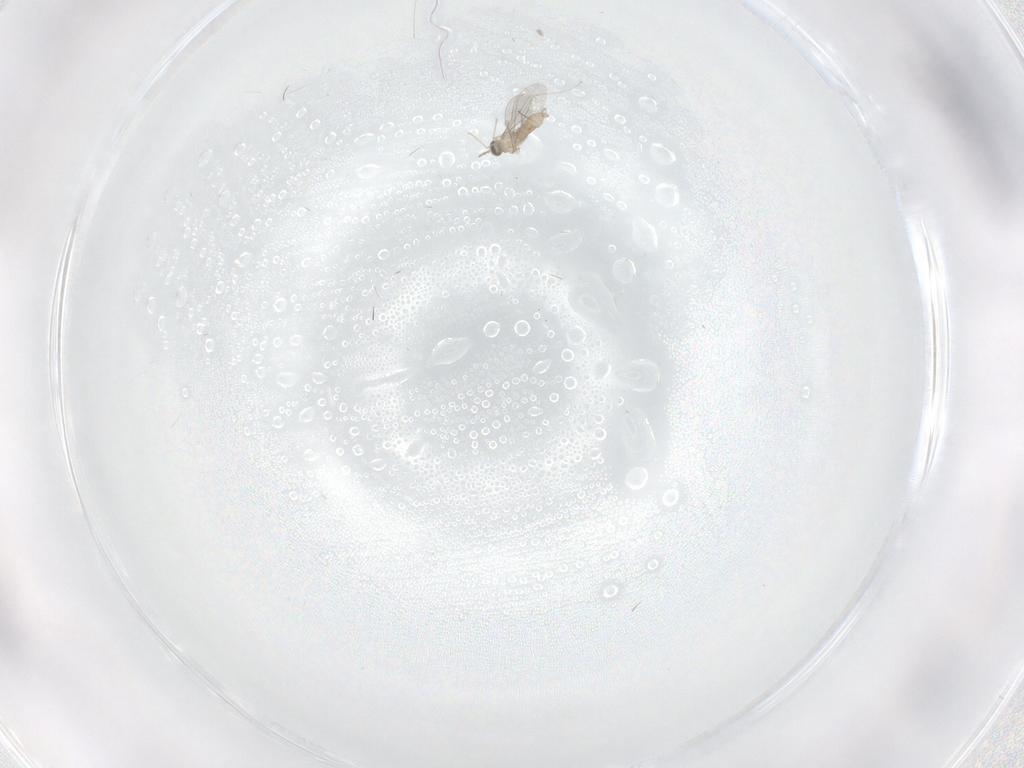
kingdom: Animalia
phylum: Arthropoda
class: Insecta
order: Diptera
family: Cecidomyiidae
